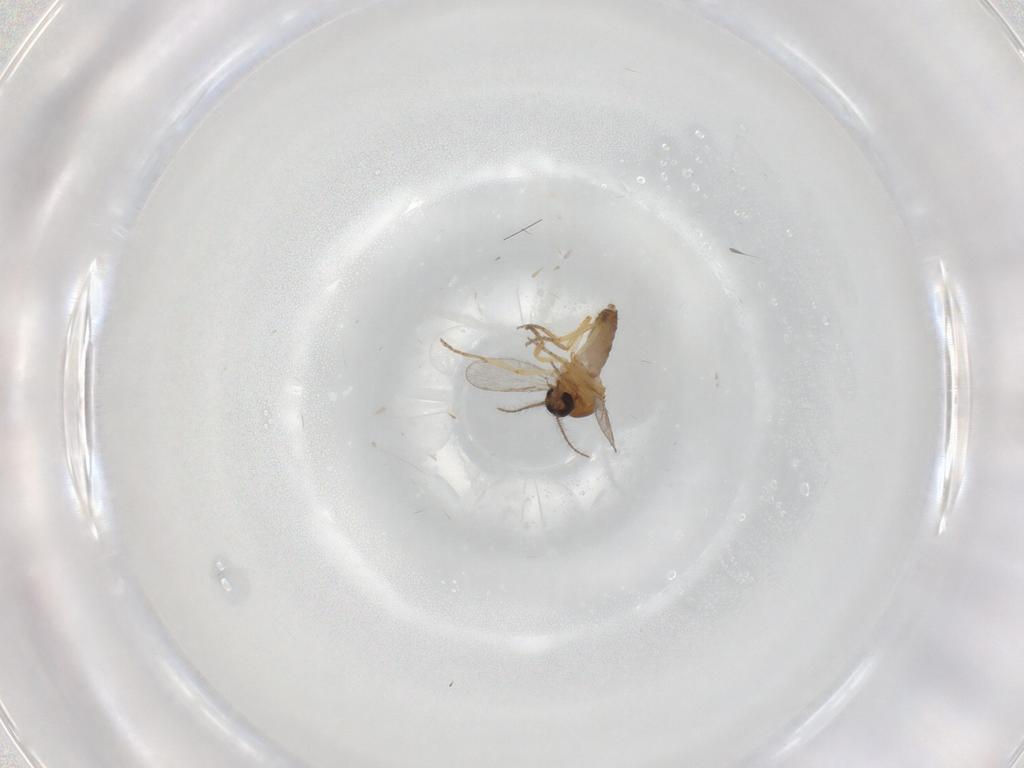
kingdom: Animalia
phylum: Arthropoda
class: Insecta
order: Diptera
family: Ceratopogonidae
